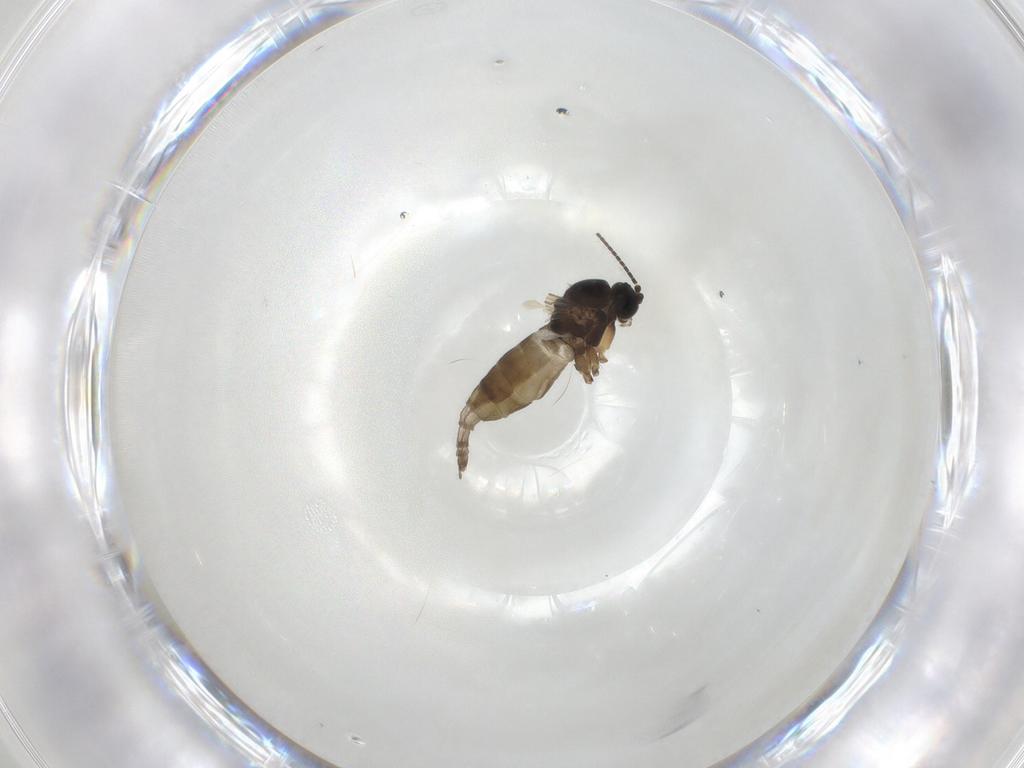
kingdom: Animalia
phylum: Arthropoda
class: Insecta
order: Diptera
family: Sciaridae
